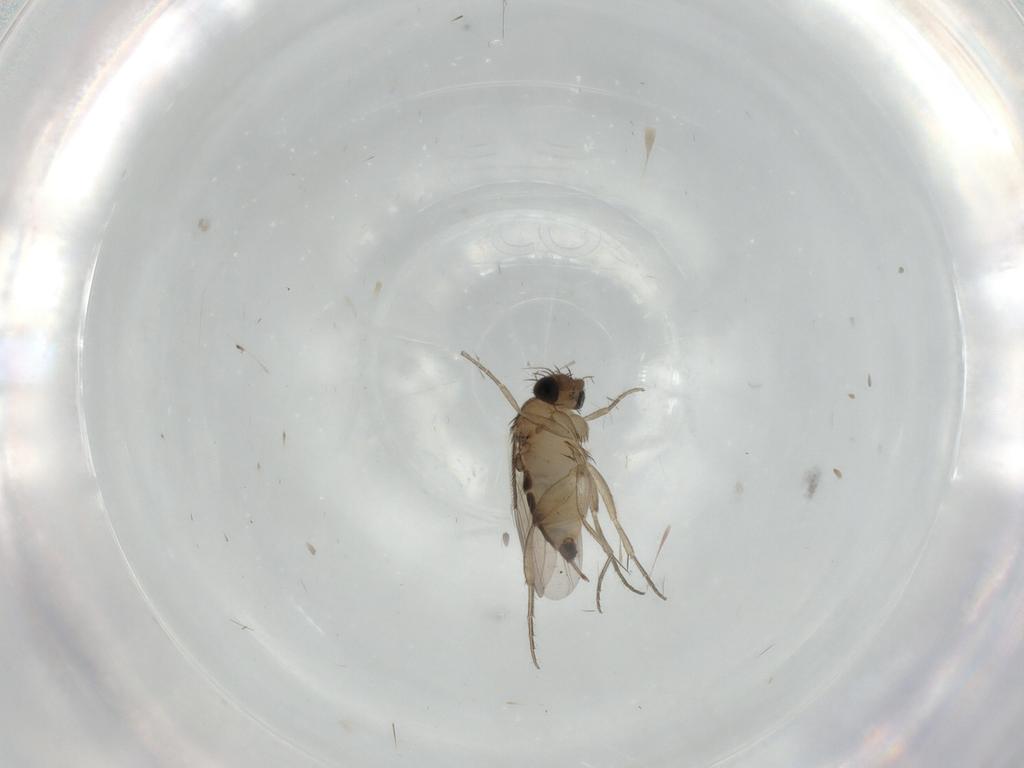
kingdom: Animalia
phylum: Arthropoda
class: Insecta
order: Diptera
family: Phoridae
